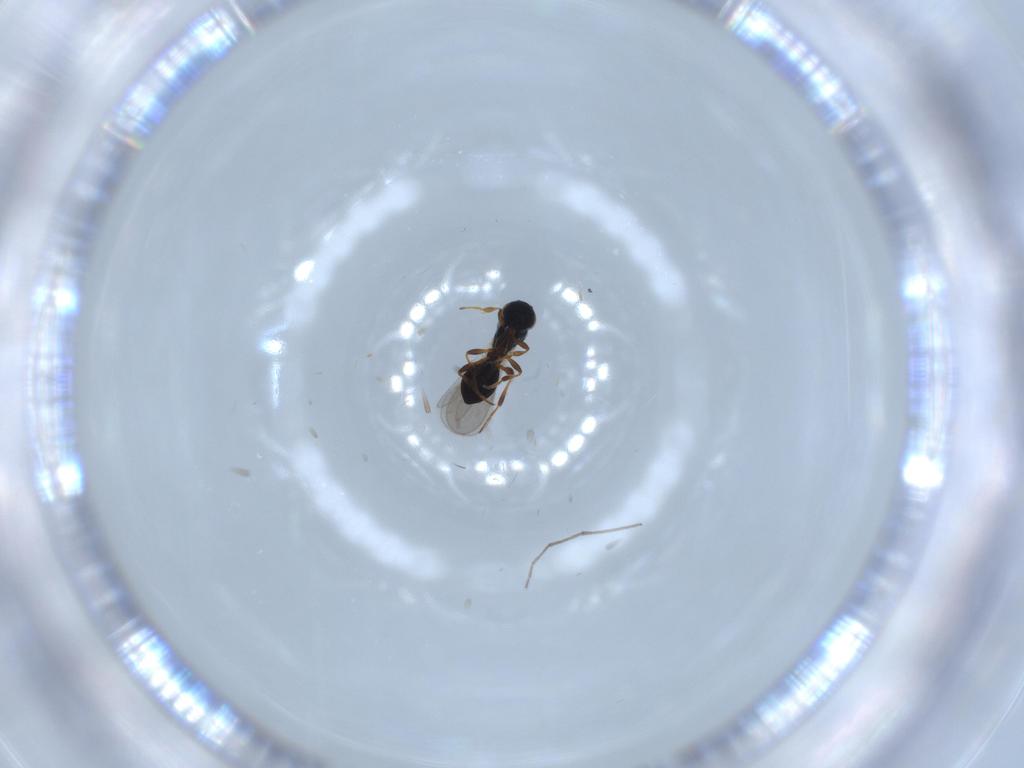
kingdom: Animalia
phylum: Arthropoda
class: Insecta
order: Hymenoptera
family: Platygastridae
